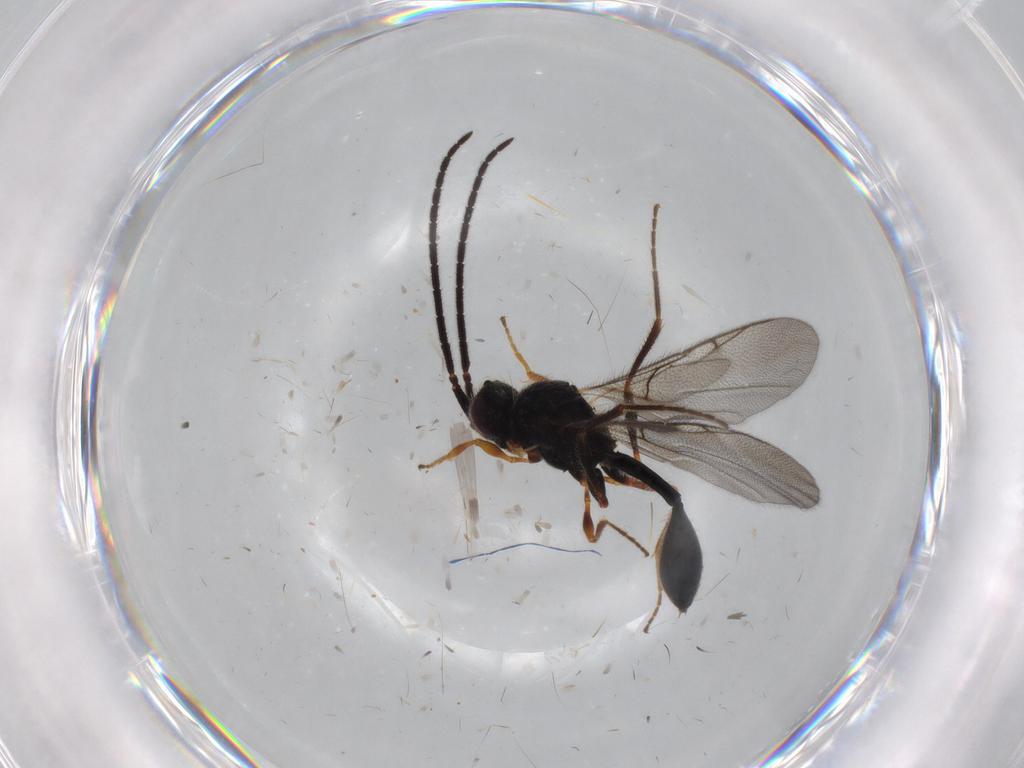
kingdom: Animalia
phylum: Arthropoda
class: Insecta
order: Hymenoptera
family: Diapriidae
